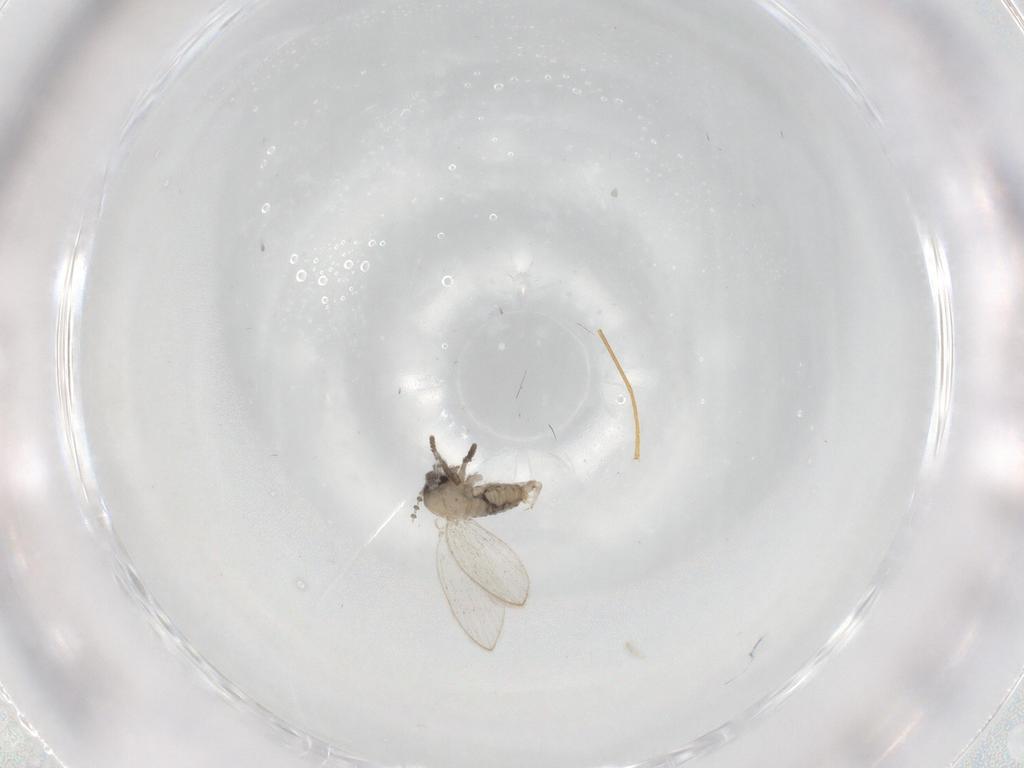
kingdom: Animalia
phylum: Arthropoda
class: Insecta
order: Diptera
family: Psychodidae
